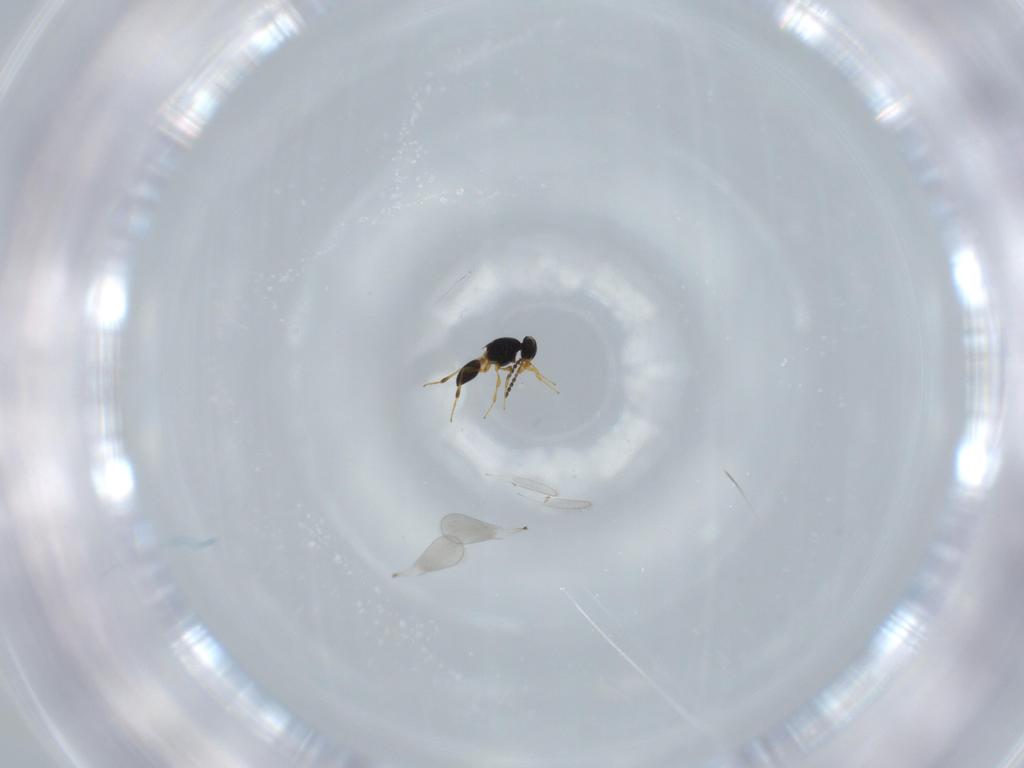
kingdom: Animalia
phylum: Arthropoda
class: Insecta
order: Hymenoptera
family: Platygastridae
